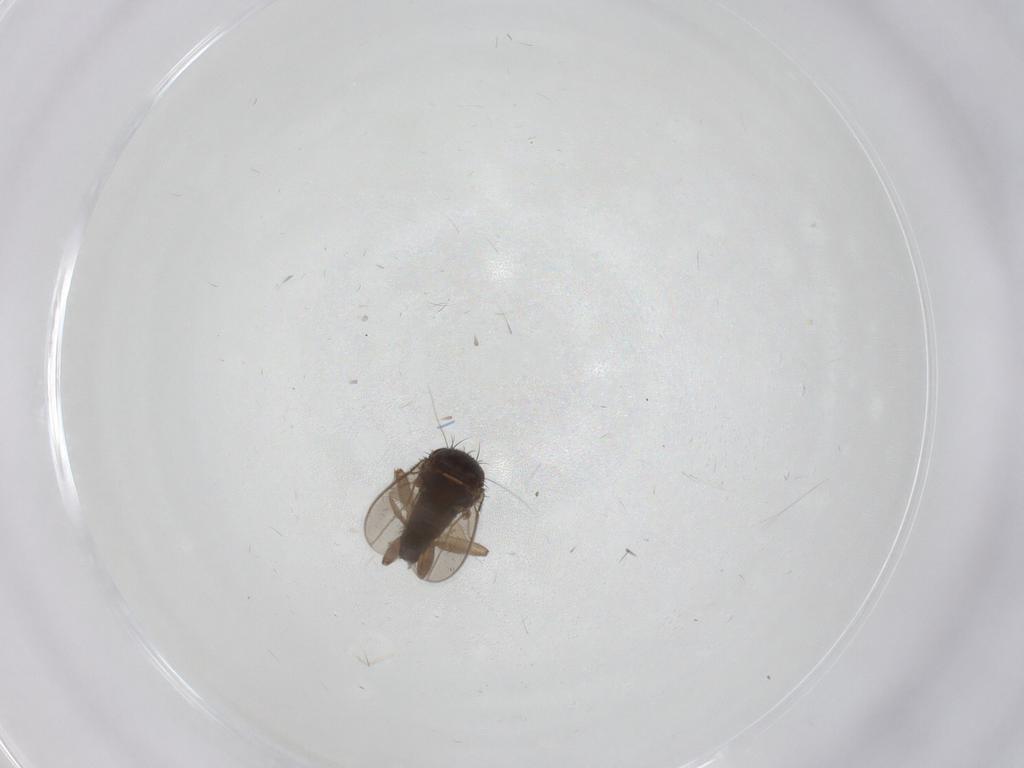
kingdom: Animalia
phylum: Arthropoda
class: Insecta
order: Diptera
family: Chironomidae
